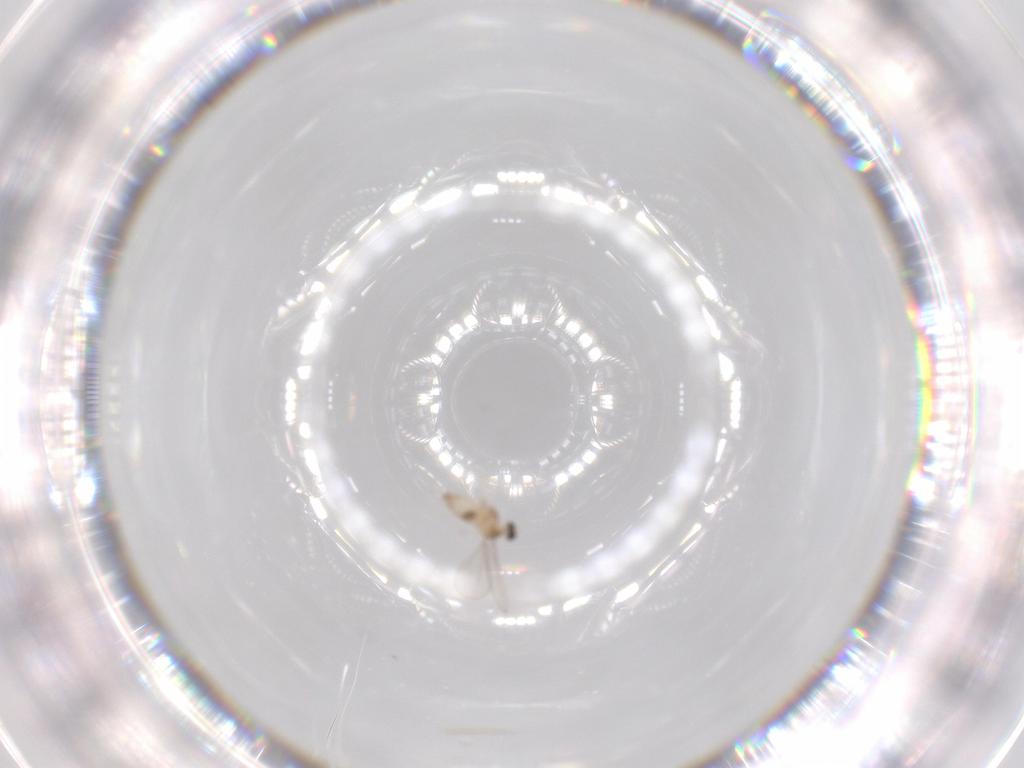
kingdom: Animalia
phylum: Arthropoda
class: Insecta
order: Diptera
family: Cecidomyiidae
